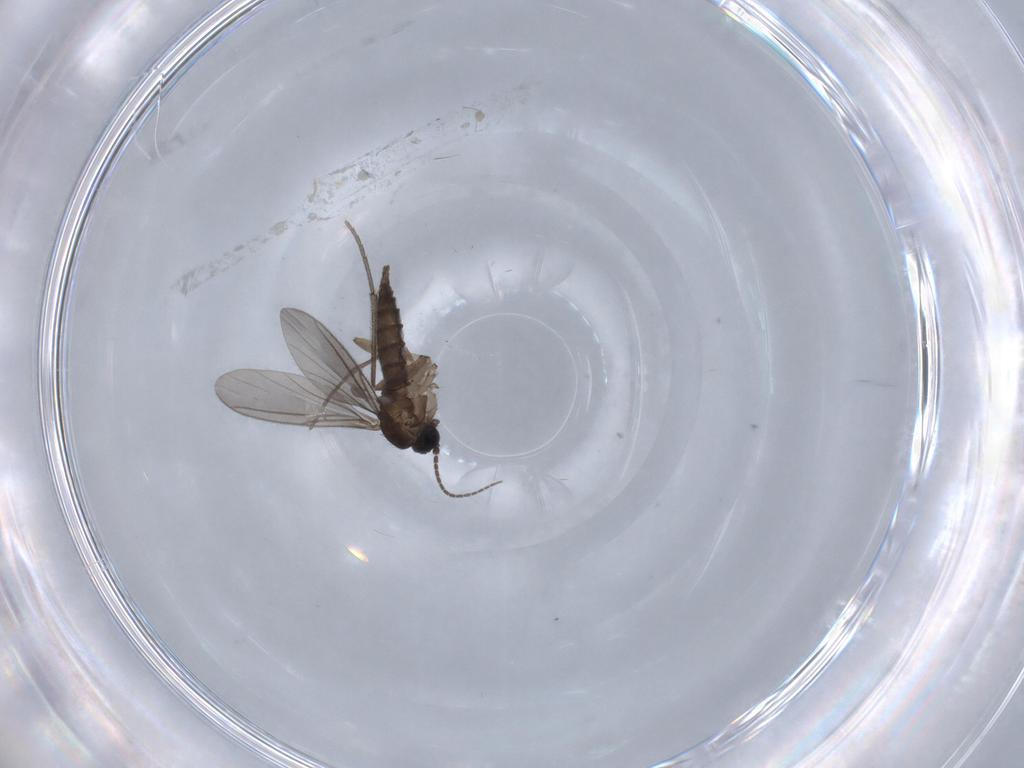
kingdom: Animalia
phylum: Arthropoda
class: Insecta
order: Diptera
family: Sciaridae
